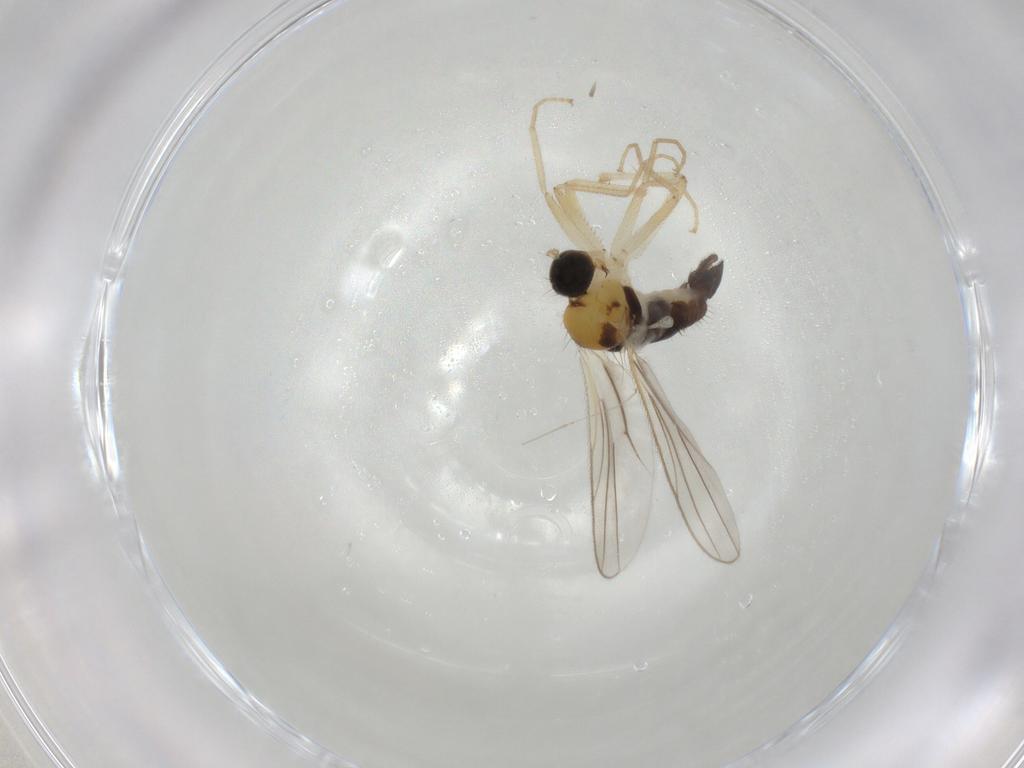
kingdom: Animalia
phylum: Arthropoda
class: Insecta
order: Diptera
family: Hybotidae
